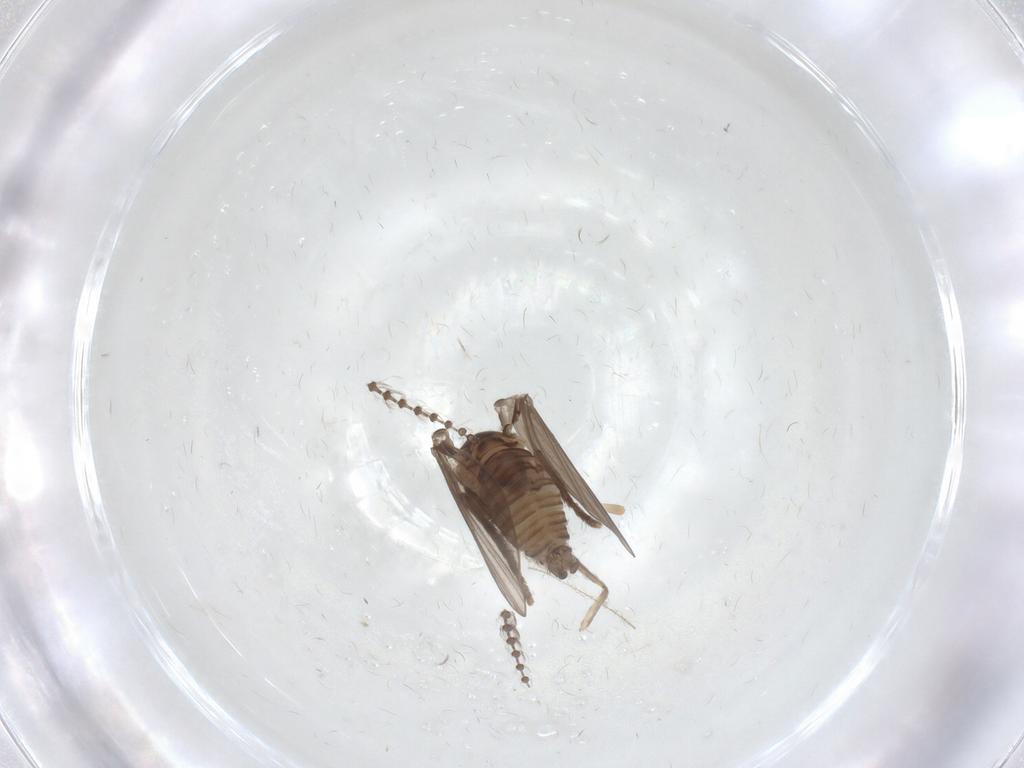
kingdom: Animalia
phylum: Arthropoda
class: Insecta
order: Diptera
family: Psychodidae
